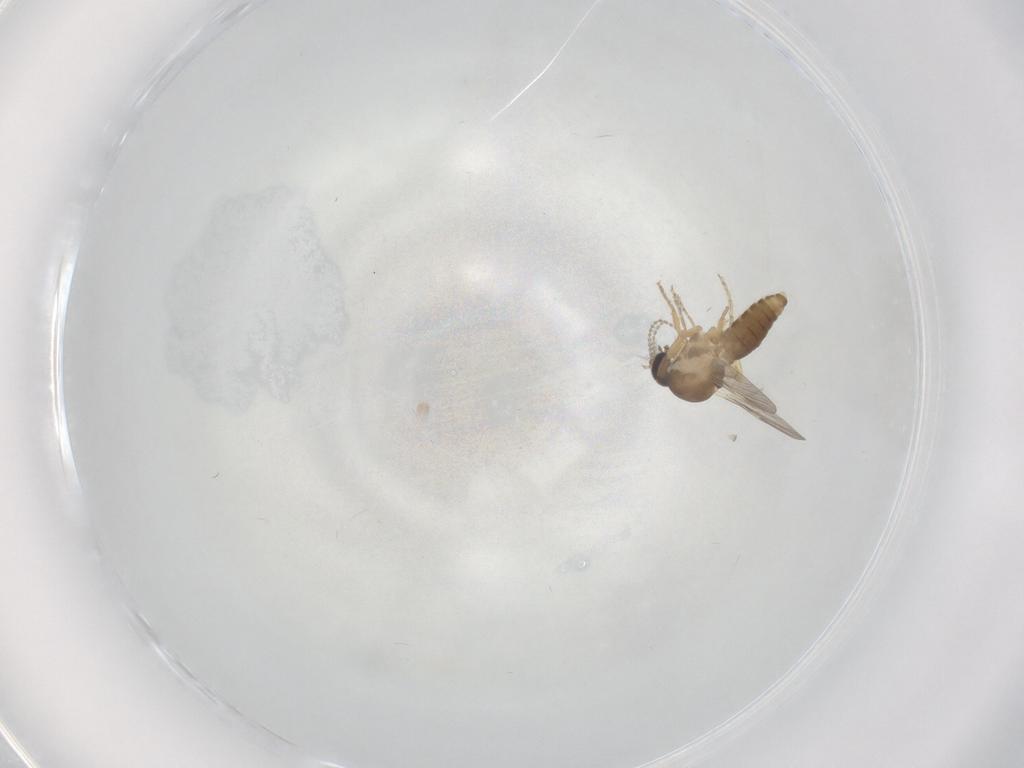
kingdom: Animalia
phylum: Arthropoda
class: Insecta
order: Diptera
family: Ceratopogonidae
